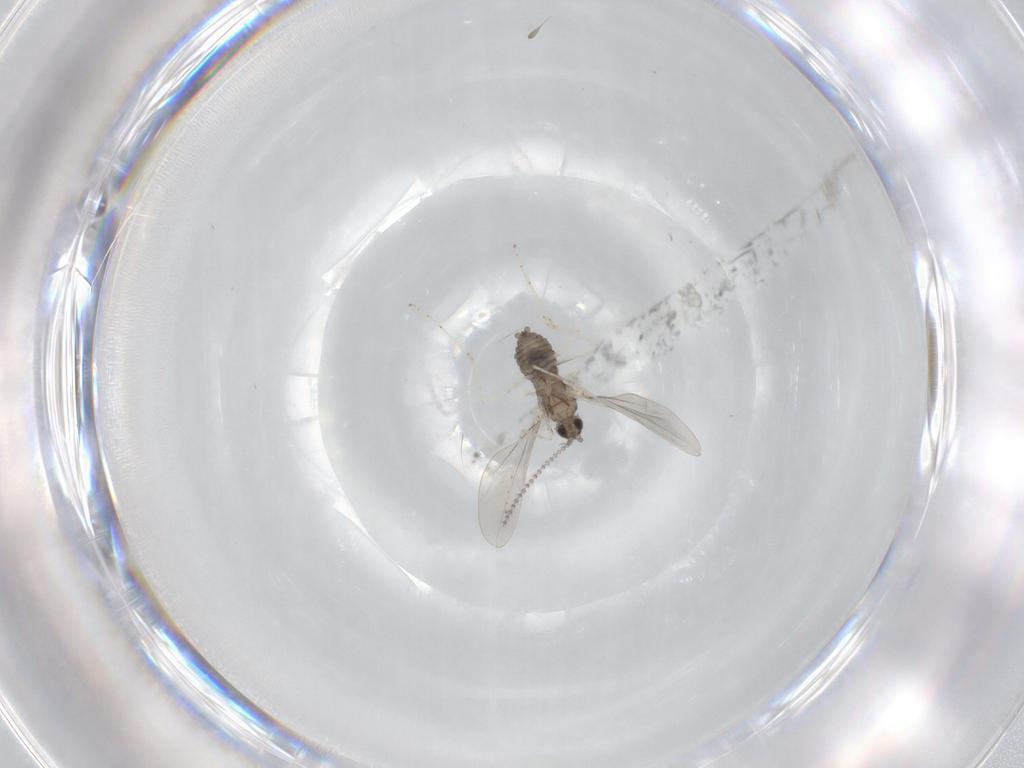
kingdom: Animalia
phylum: Arthropoda
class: Insecta
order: Diptera
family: Cecidomyiidae
